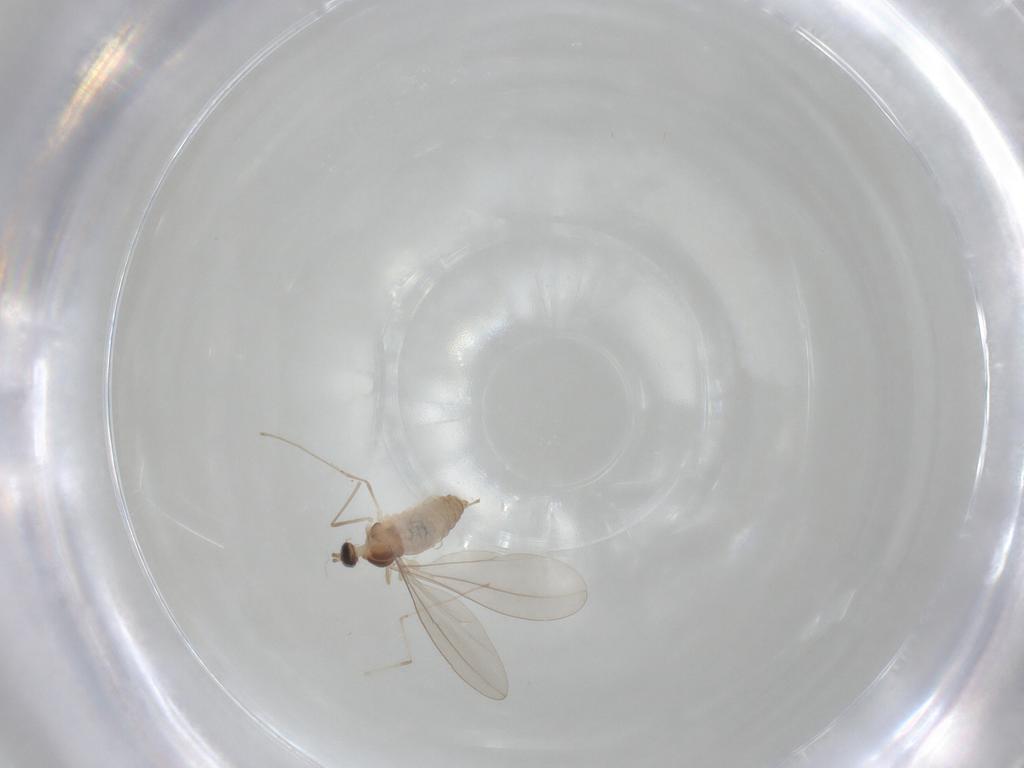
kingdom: Animalia
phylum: Arthropoda
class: Insecta
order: Diptera
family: Cecidomyiidae
